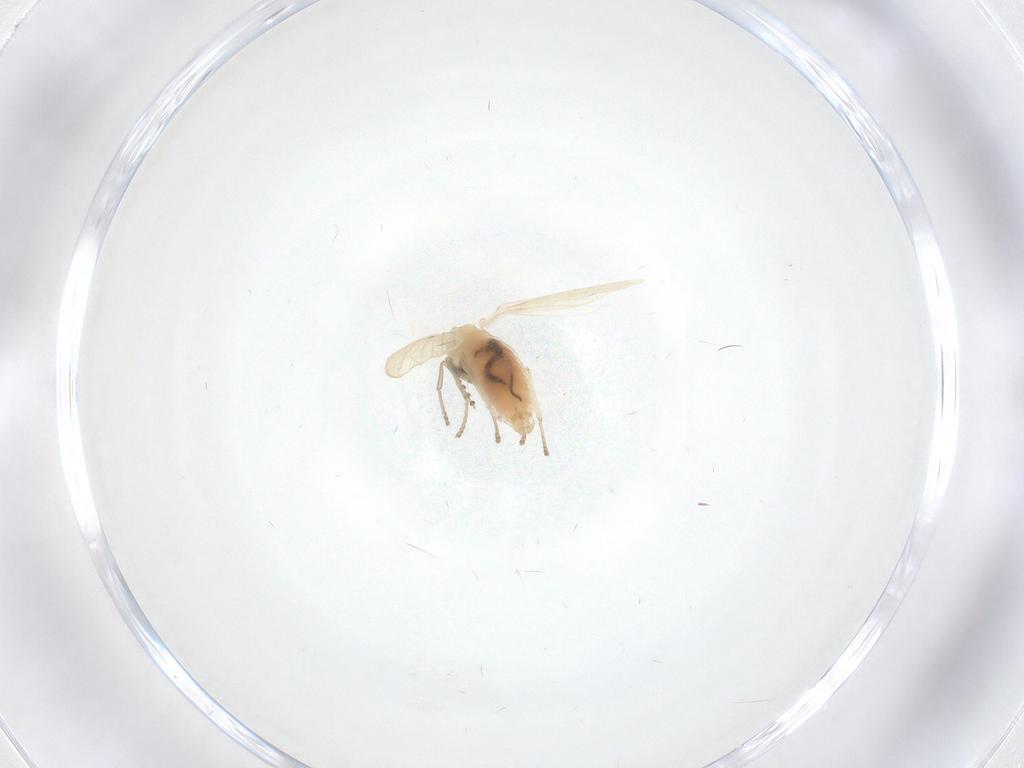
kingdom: Animalia
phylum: Arthropoda
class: Insecta
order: Diptera
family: Psychodidae
